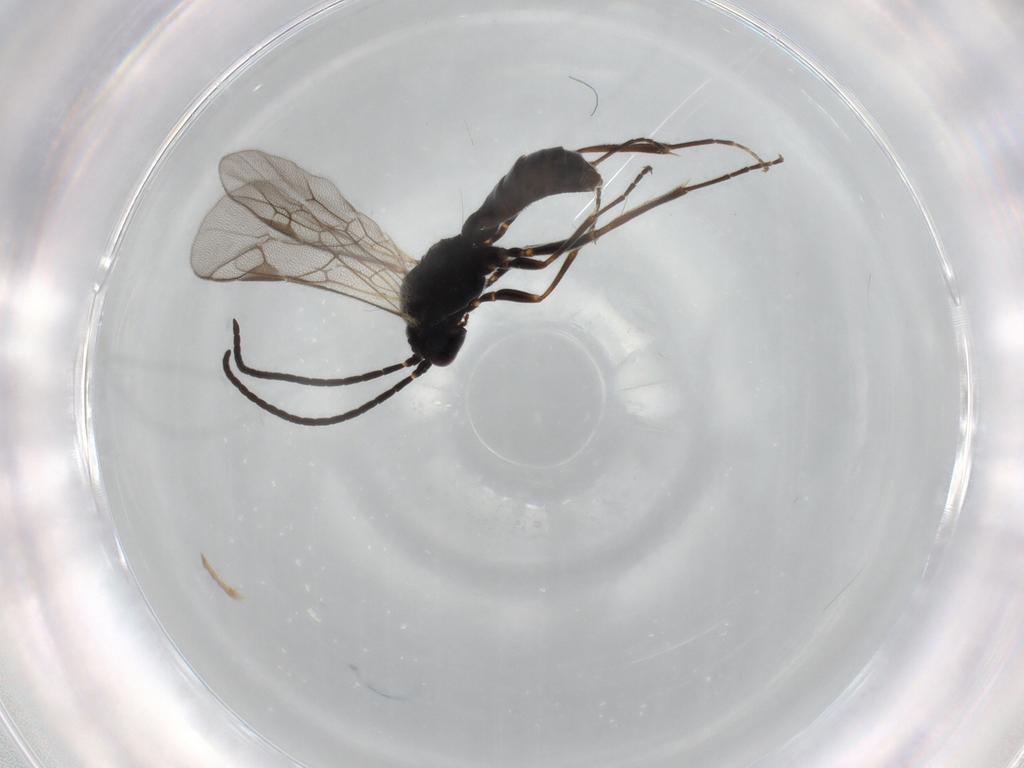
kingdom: Animalia
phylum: Arthropoda
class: Insecta
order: Hymenoptera
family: Ichneumonidae
